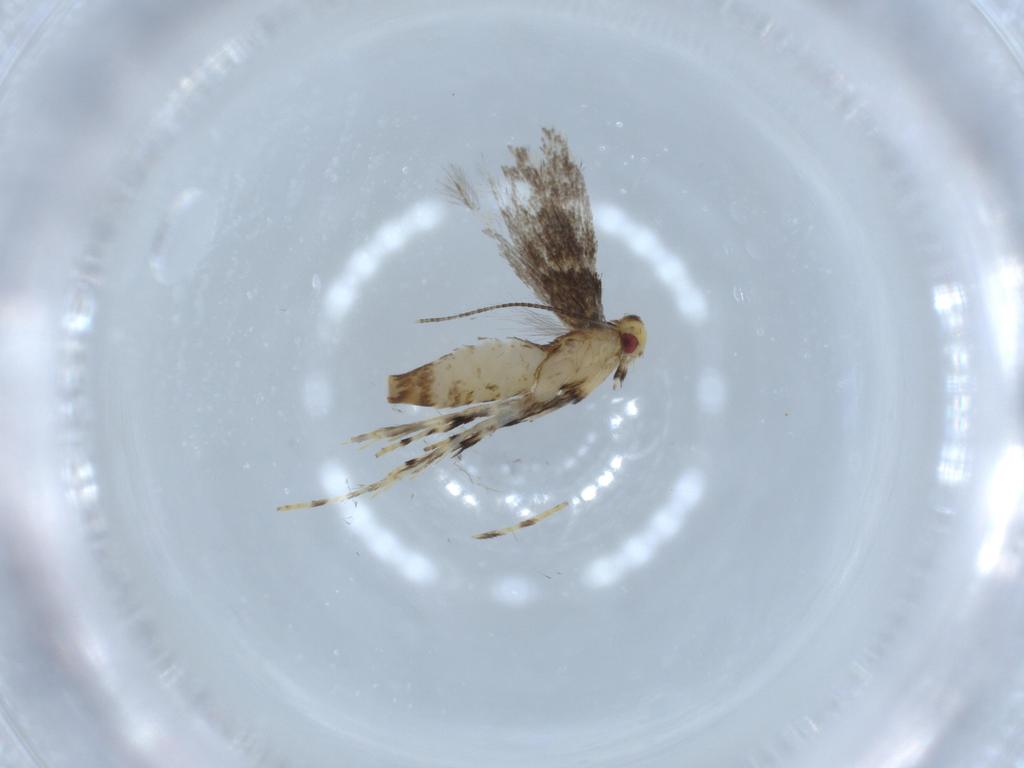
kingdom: Animalia
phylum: Arthropoda
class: Insecta
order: Lepidoptera
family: Gracillariidae
